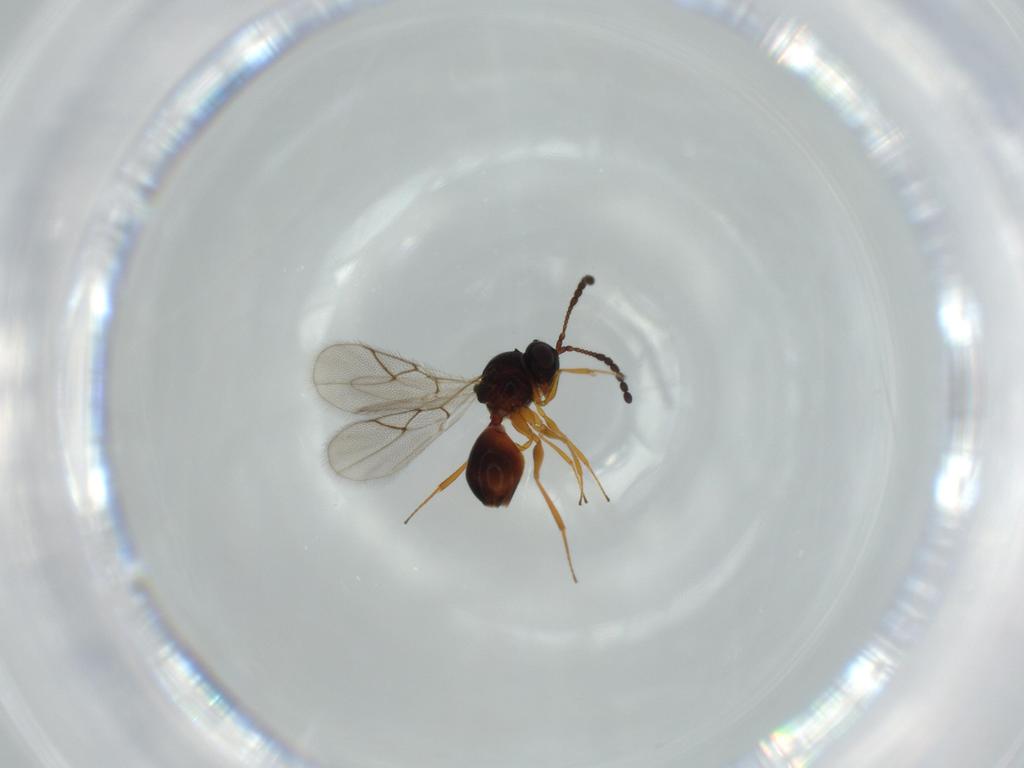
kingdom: Animalia
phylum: Arthropoda
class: Insecta
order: Hymenoptera
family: Figitidae
